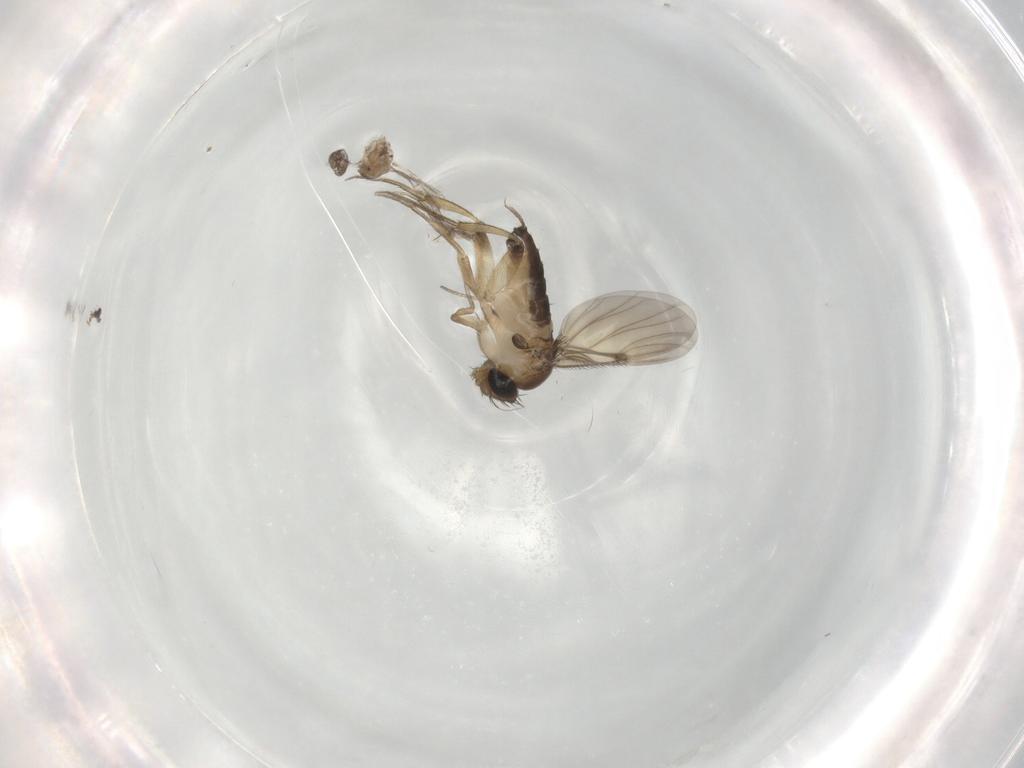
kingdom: Animalia
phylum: Arthropoda
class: Insecta
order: Diptera
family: Phoridae
